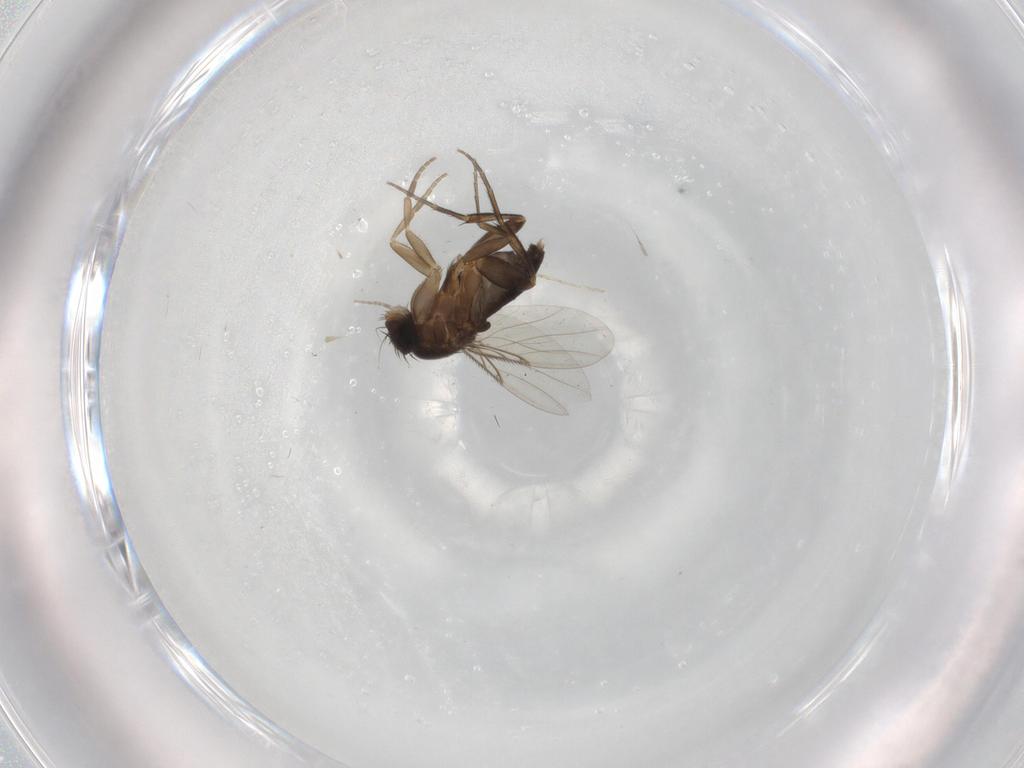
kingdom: Animalia
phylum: Arthropoda
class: Insecta
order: Diptera
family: Phoridae
